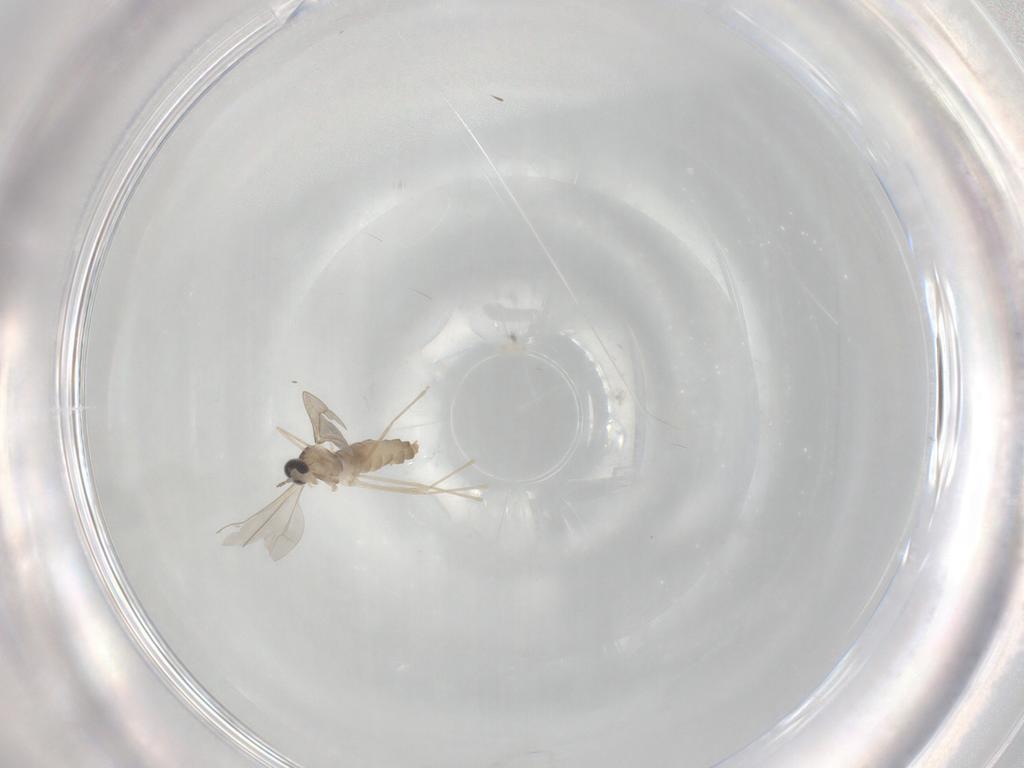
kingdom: Animalia
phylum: Arthropoda
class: Insecta
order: Diptera
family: Cecidomyiidae
